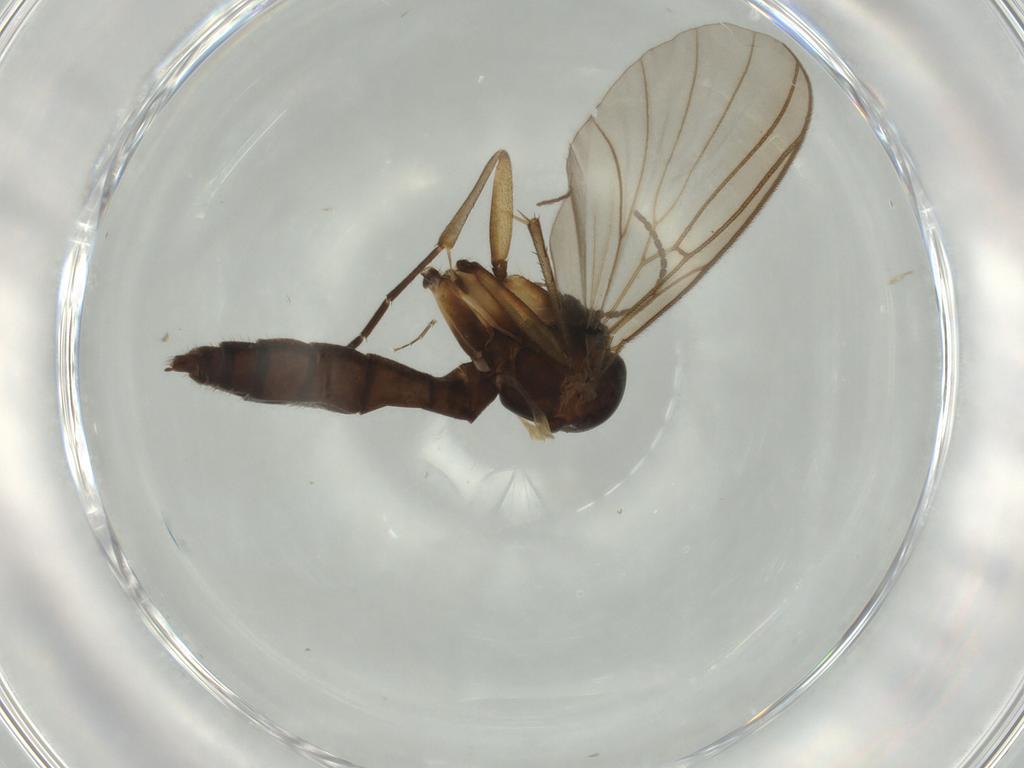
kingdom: Animalia
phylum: Arthropoda
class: Insecta
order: Diptera
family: Chironomidae
